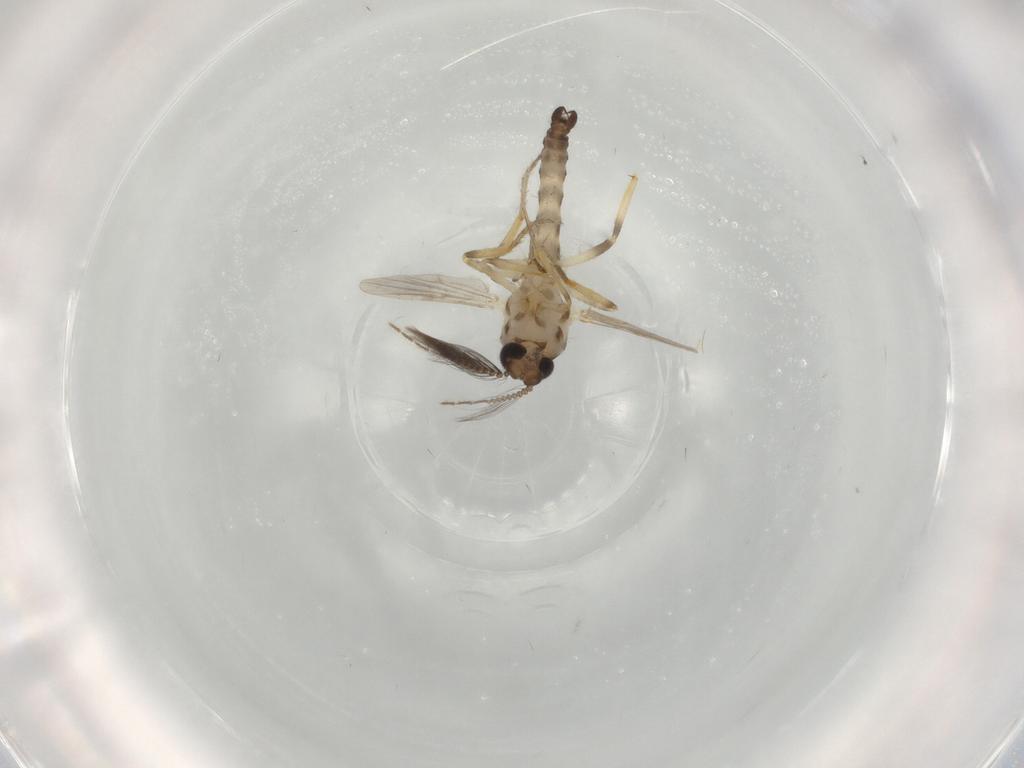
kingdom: Animalia
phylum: Arthropoda
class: Insecta
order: Diptera
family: Ceratopogonidae
